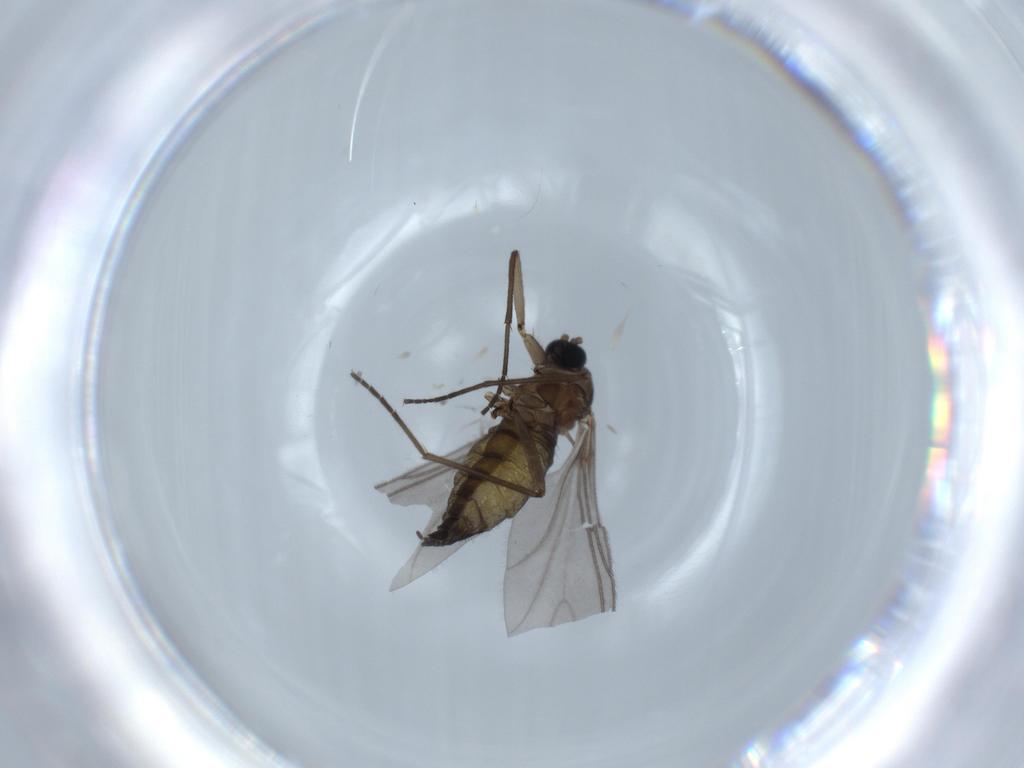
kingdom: Animalia
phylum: Arthropoda
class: Insecta
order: Diptera
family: Sciaridae
